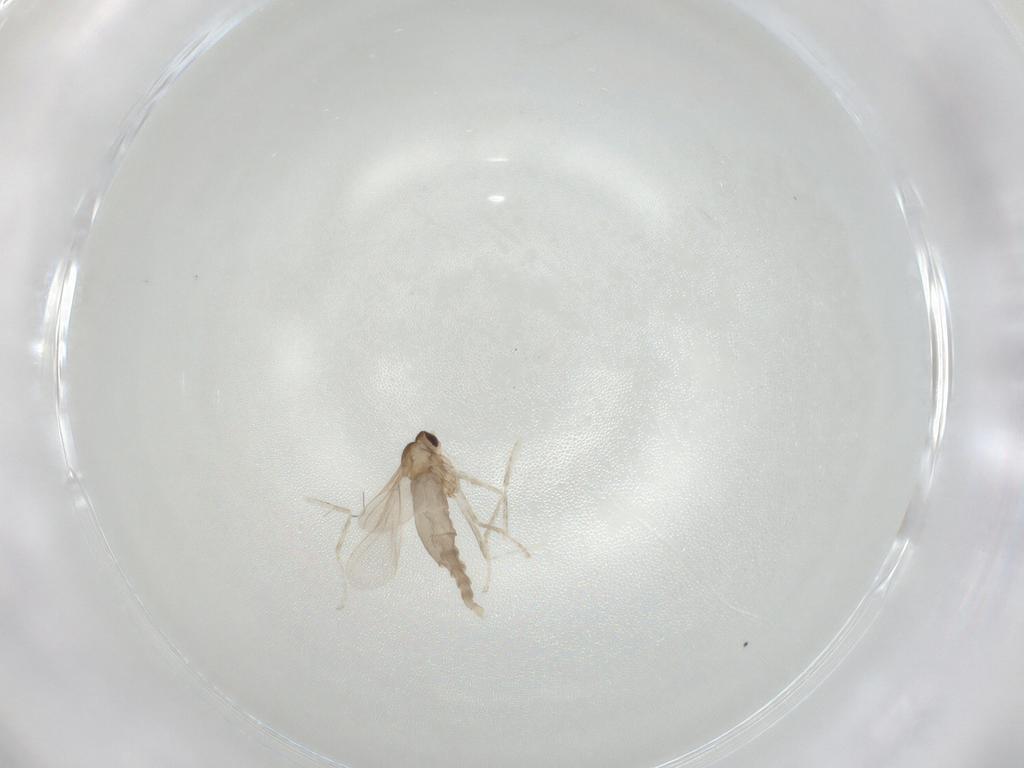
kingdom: Animalia
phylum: Arthropoda
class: Insecta
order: Diptera
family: Cecidomyiidae
